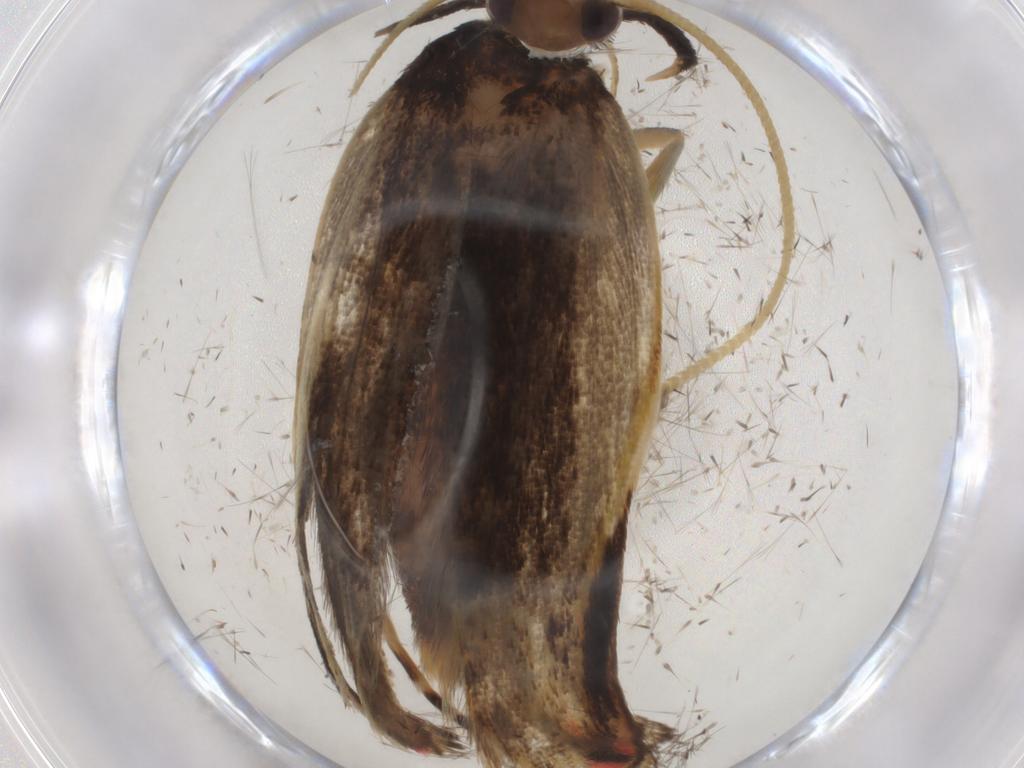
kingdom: Animalia
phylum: Arthropoda
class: Insecta
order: Lepidoptera
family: Depressariidae
